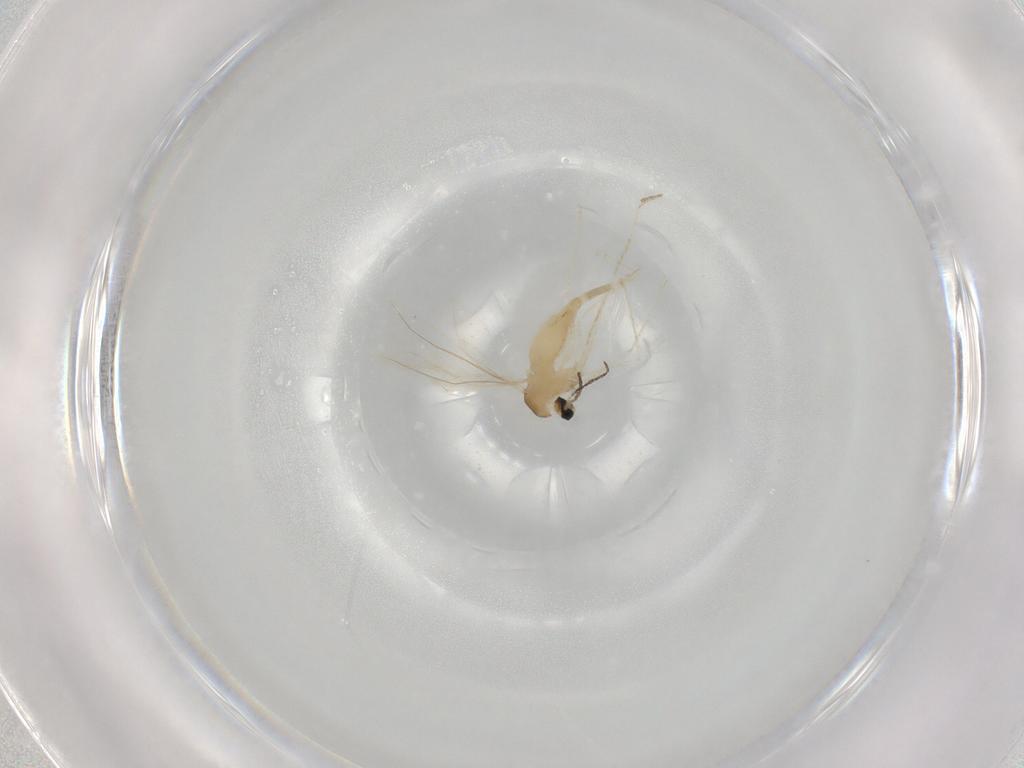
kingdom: Animalia
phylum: Arthropoda
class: Insecta
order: Diptera
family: Cecidomyiidae
